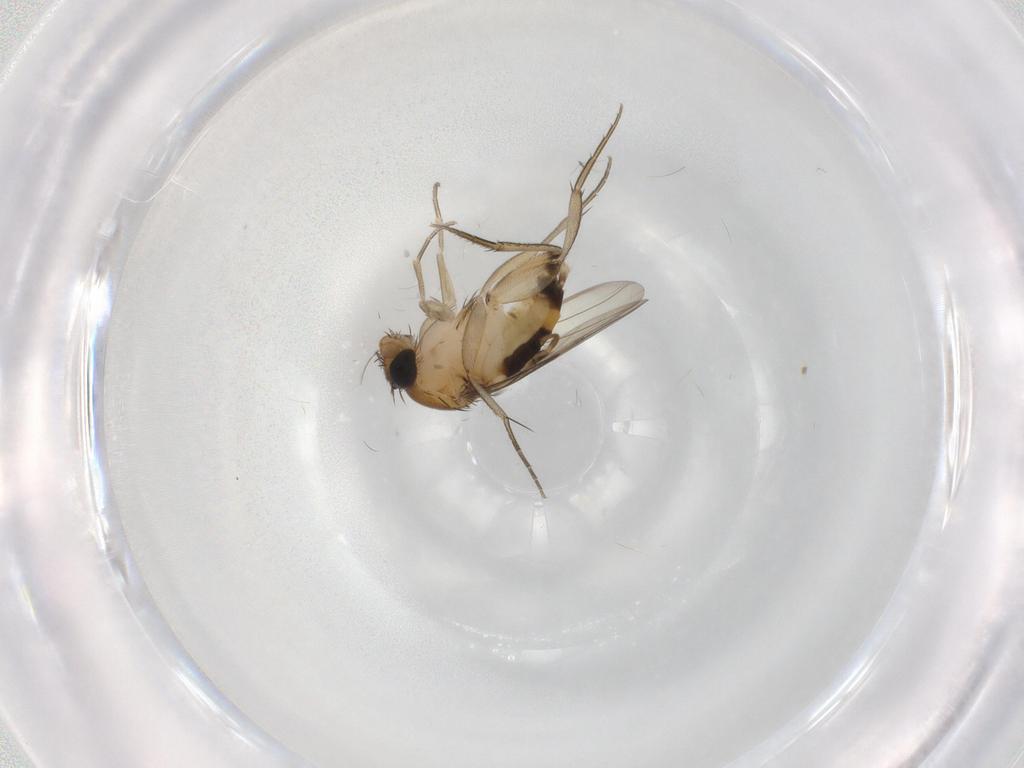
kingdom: Animalia
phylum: Arthropoda
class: Insecta
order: Diptera
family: Phoridae
